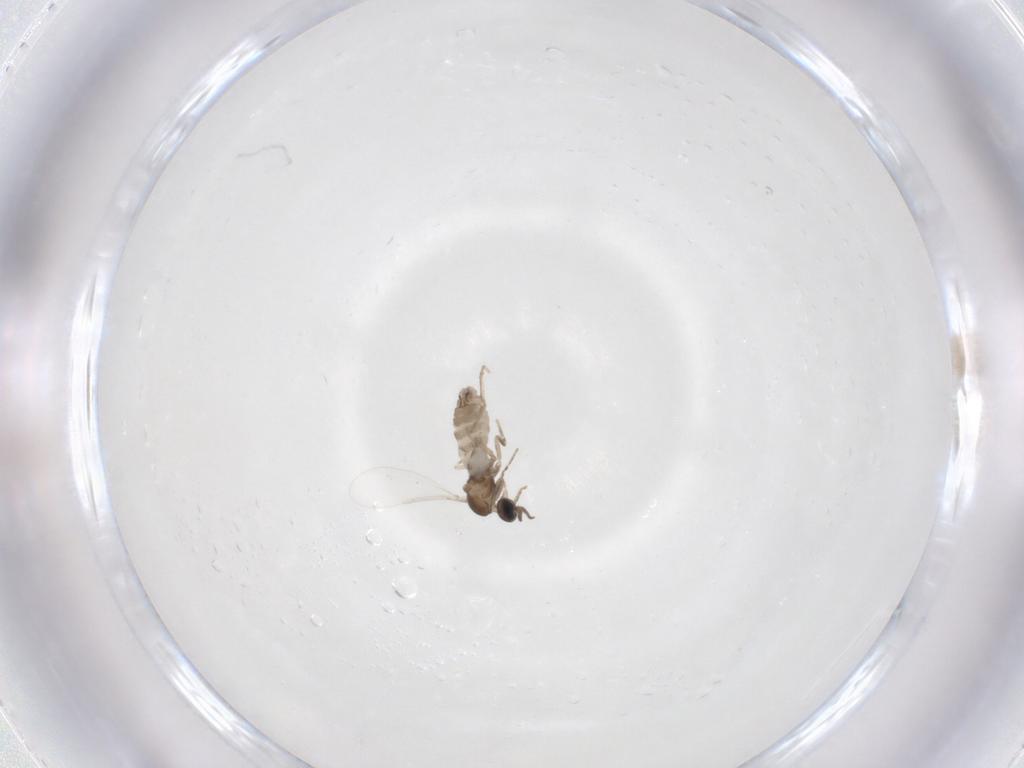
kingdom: Animalia
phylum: Arthropoda
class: Insecta
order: Diptera
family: Cecidomyiidae
